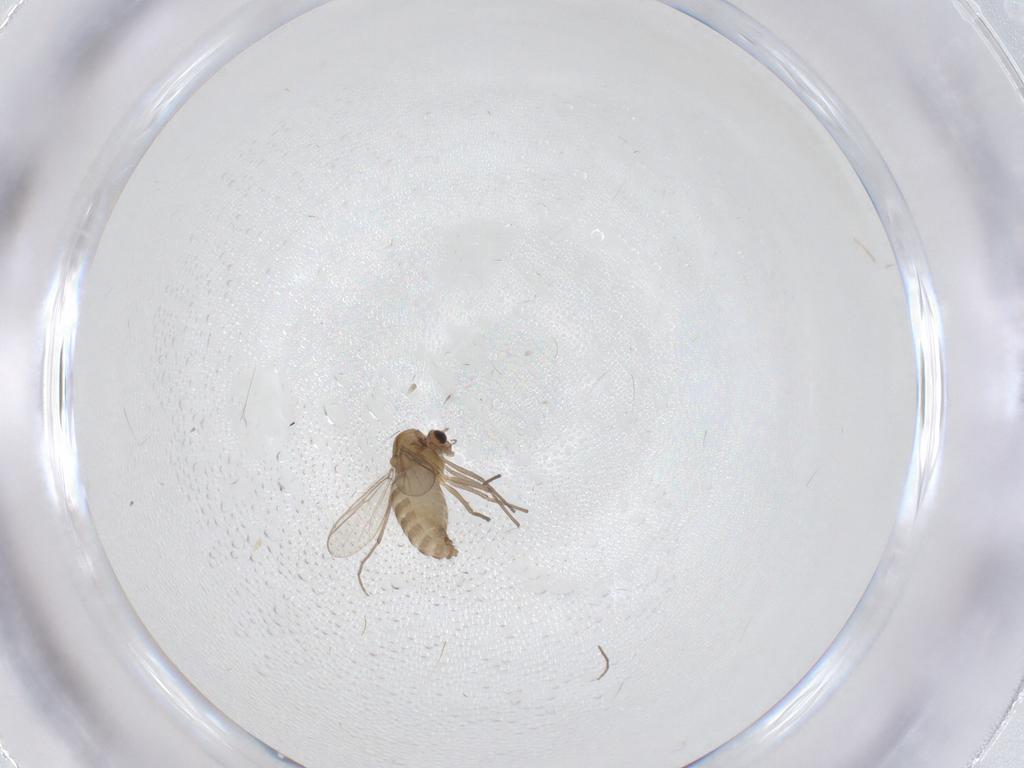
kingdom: Animalia
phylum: Arthropoda
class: Insecta
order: Diptera
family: Chironomidae
